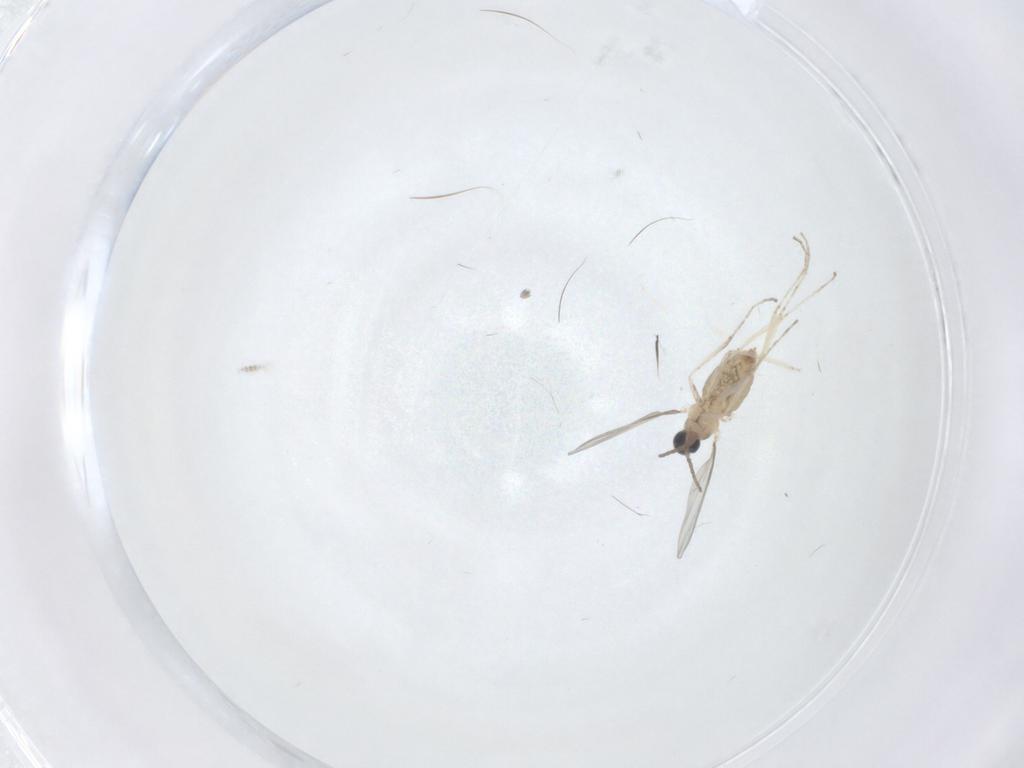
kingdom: Animalia
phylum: Arthropoda
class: Insecta
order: Diptera
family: Cecidomyiidae
